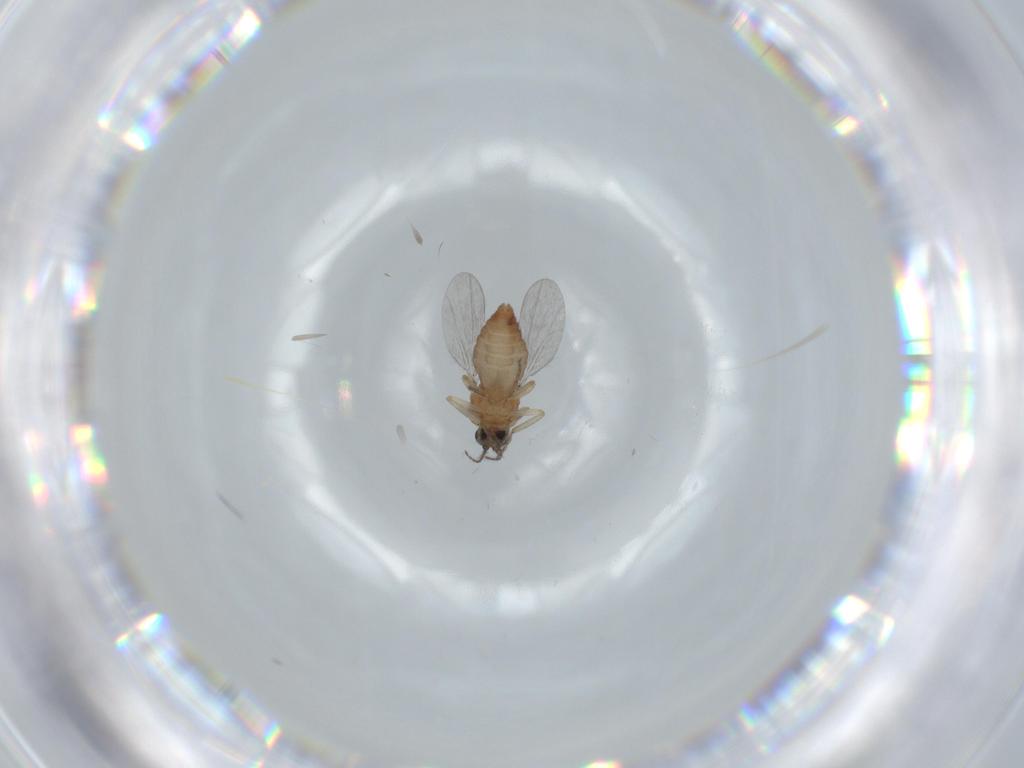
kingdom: Animalia
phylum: Arthropoda
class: Insecta
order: Diptera
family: Ceratopogonidae
